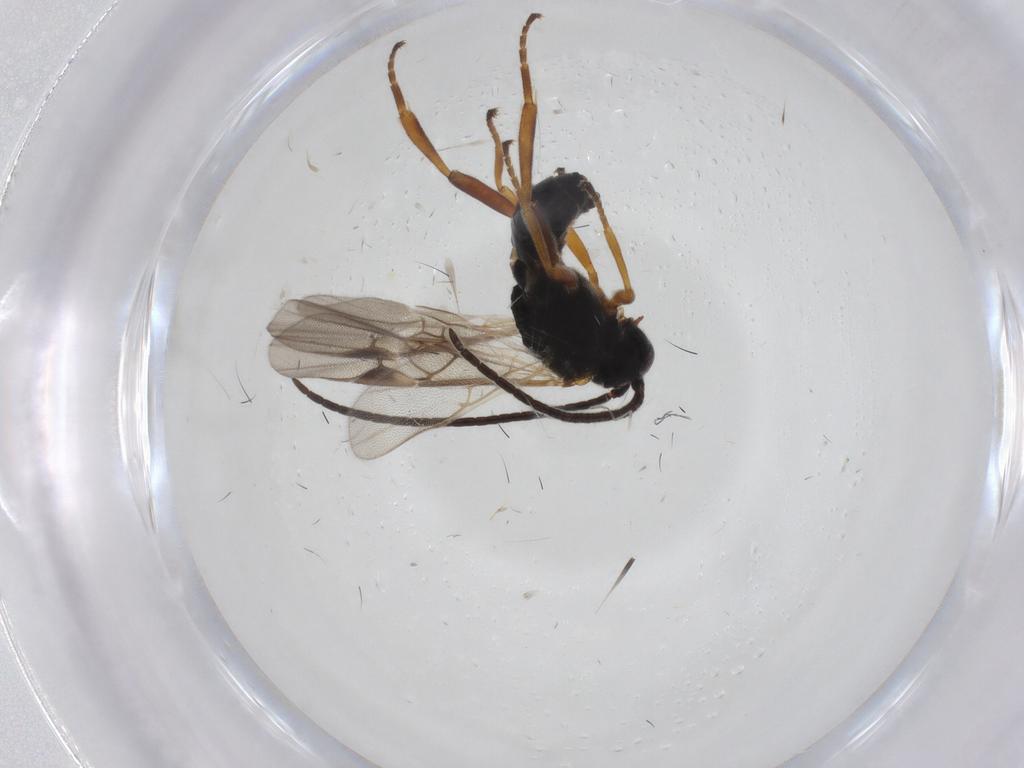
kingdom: Animalia
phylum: Arthropoda
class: Insecta
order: Hymenoptera
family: Braconidae
